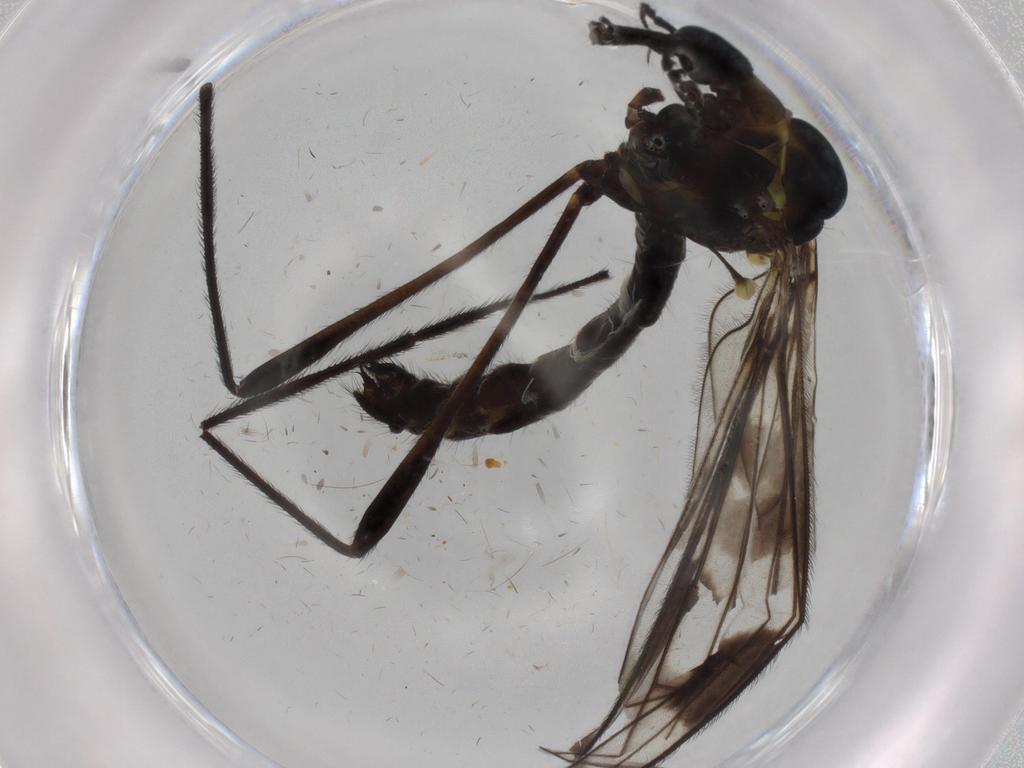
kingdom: Animalia
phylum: Arthropoda
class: Insecta
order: Diptera
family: Limoniidae
